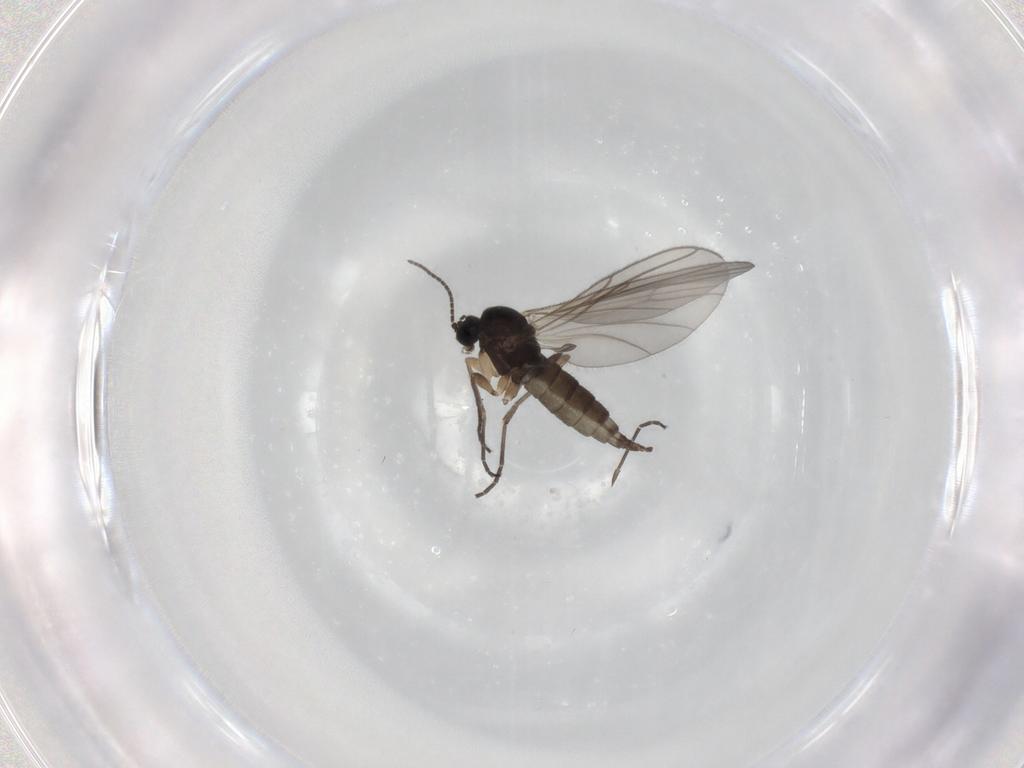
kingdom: Animalia
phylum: Arthropoda
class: Insecta
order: Diptera
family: Sciaridae
